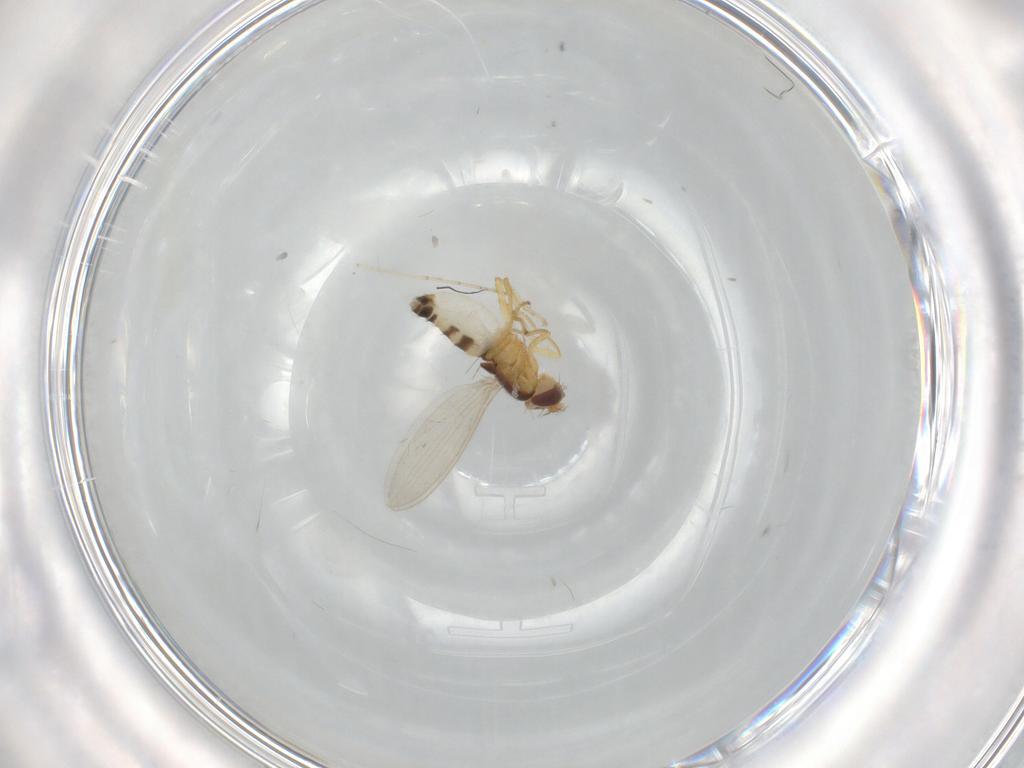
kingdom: Animalia
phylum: Arthropoda
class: Insecta
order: Diptera
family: Periscelididae
